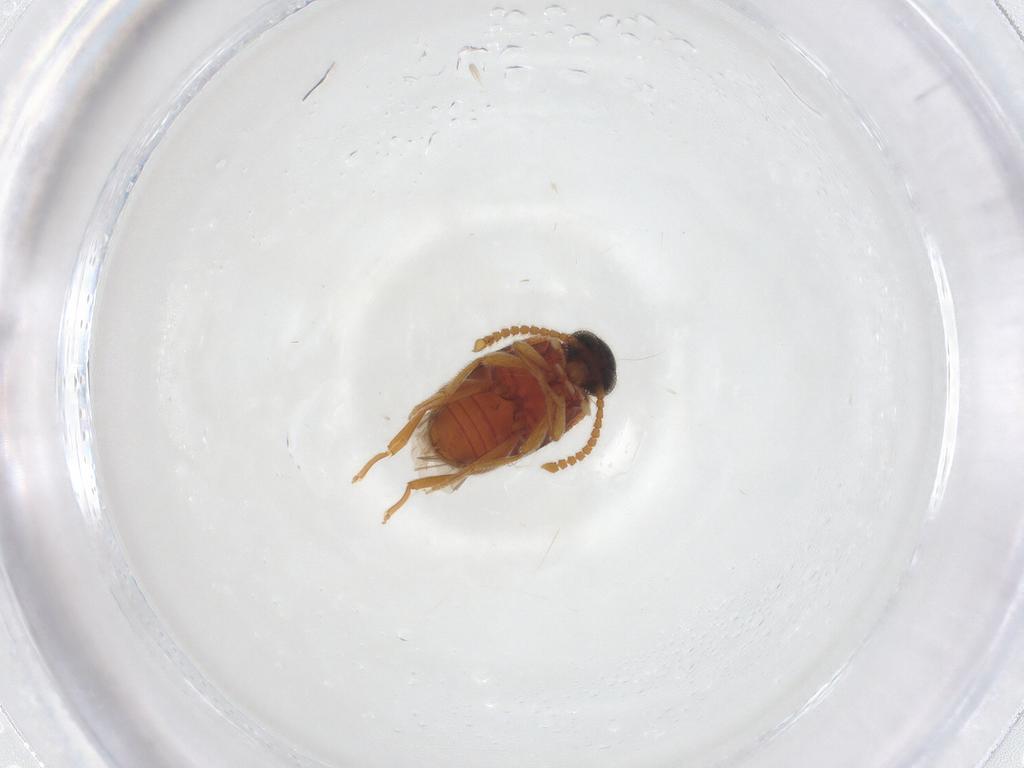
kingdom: Animalia
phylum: Arthropoda
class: Insecta
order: Coleoptera
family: Aderidae
